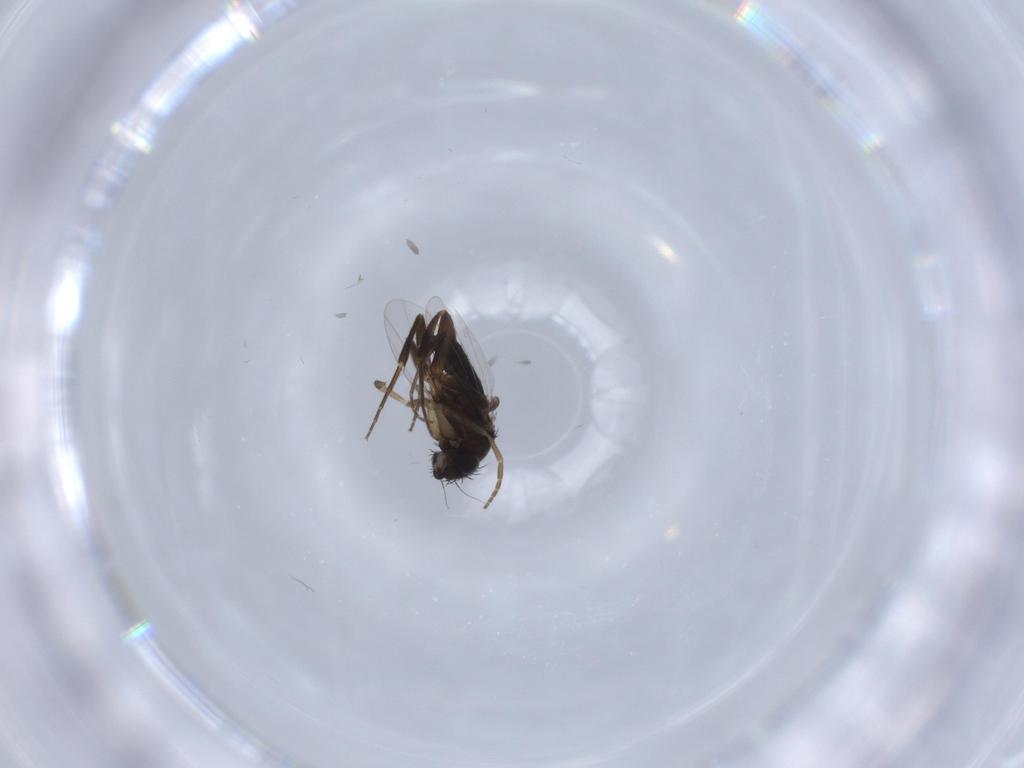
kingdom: Animalia
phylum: Arthropoda
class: Insecta
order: Diptera
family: Phoridae
